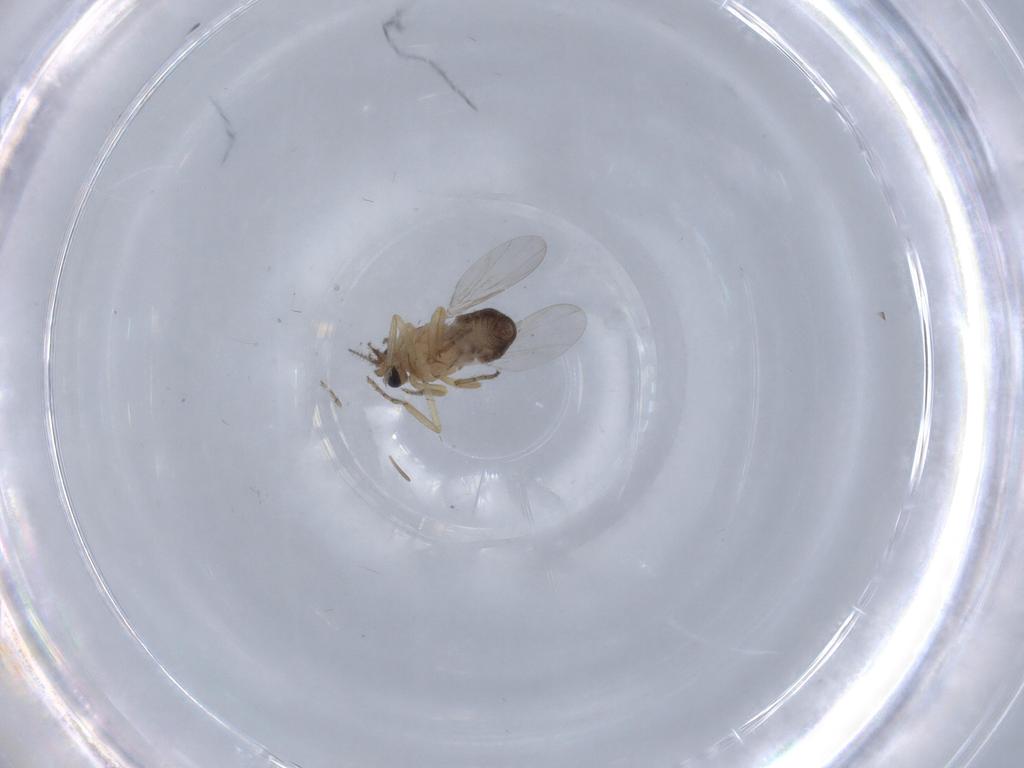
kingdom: Animalia
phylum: Arthropoda
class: Insecta
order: Diptera
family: Ceratopogonidae
